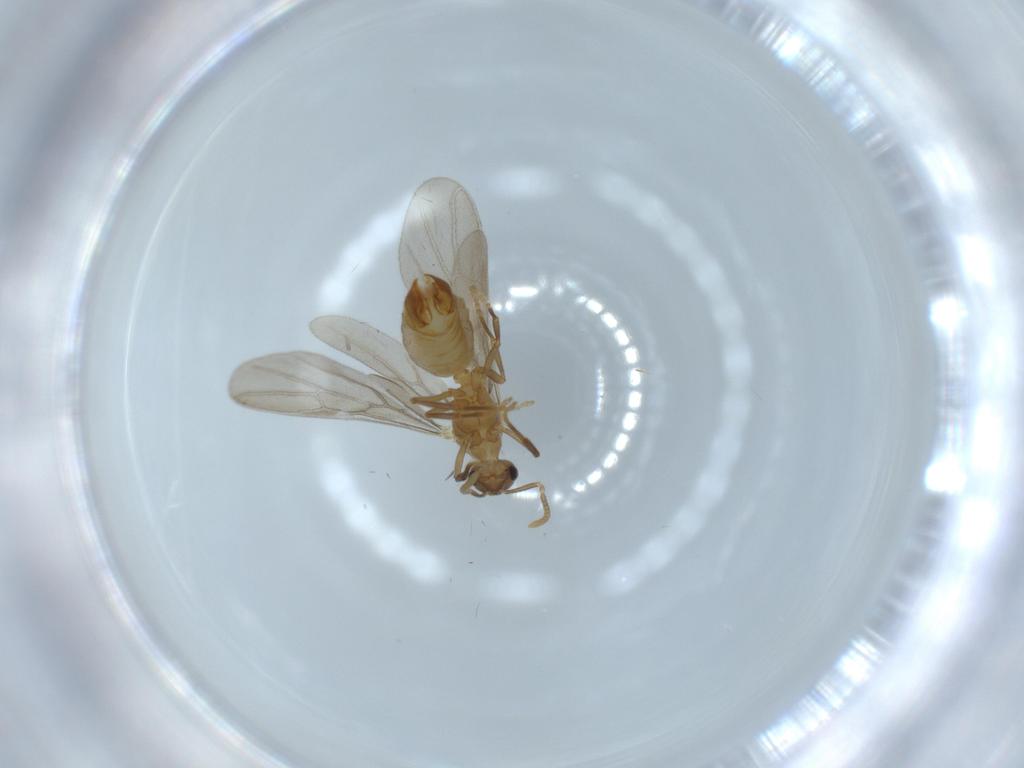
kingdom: Animalia
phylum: Arthropoda
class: Insecta
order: Hymenoptera
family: Formicidae
